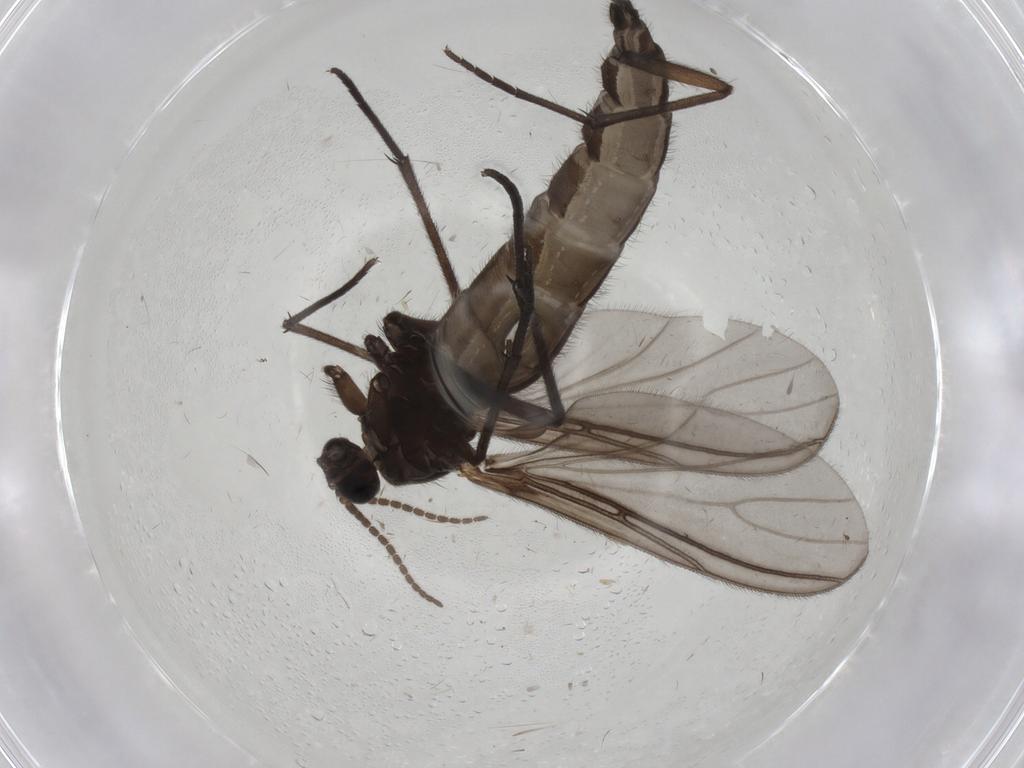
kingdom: Animalia
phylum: Arthropoda
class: Insecta
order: Diptera
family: Sciaridae
